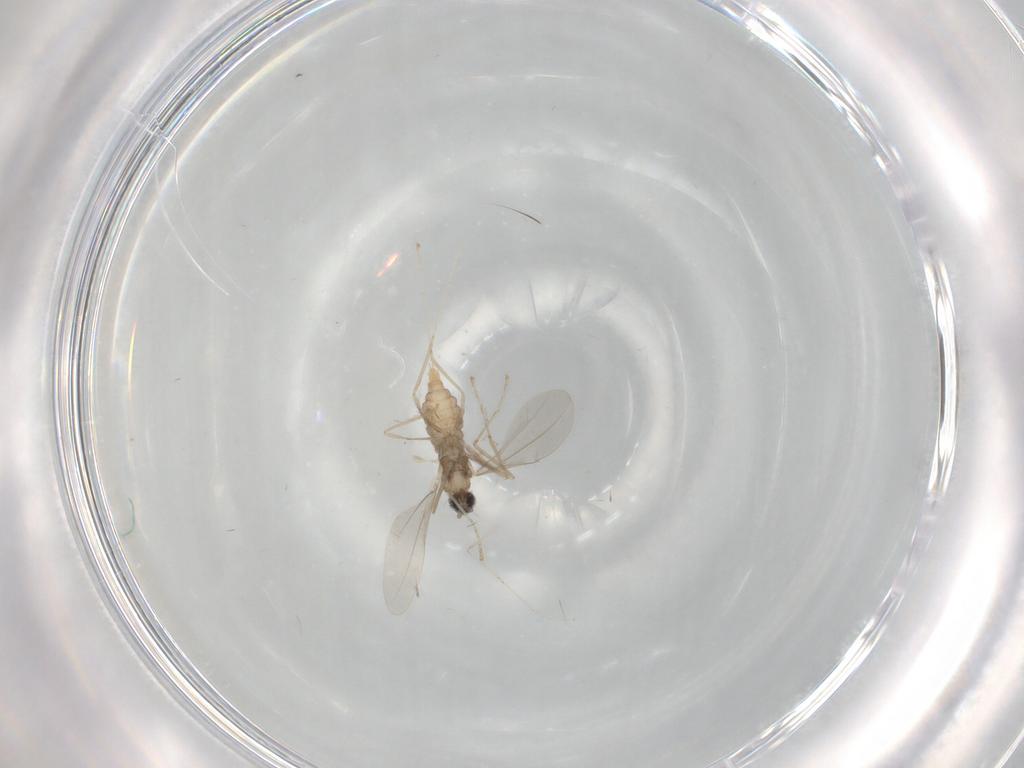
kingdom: Animalia
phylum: Arthropoda
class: Insecta
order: Diptera
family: Cecidomyiidae
